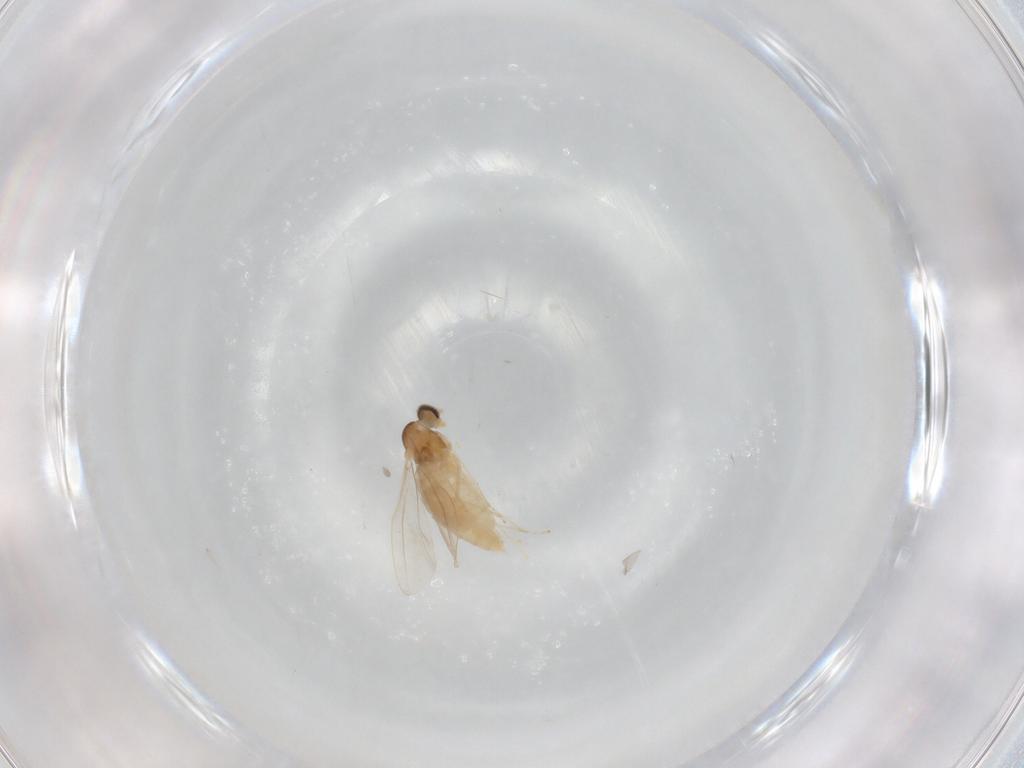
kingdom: Animalia
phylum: Arthropoda
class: Insecta
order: Diptera
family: Cecidomyiidae
